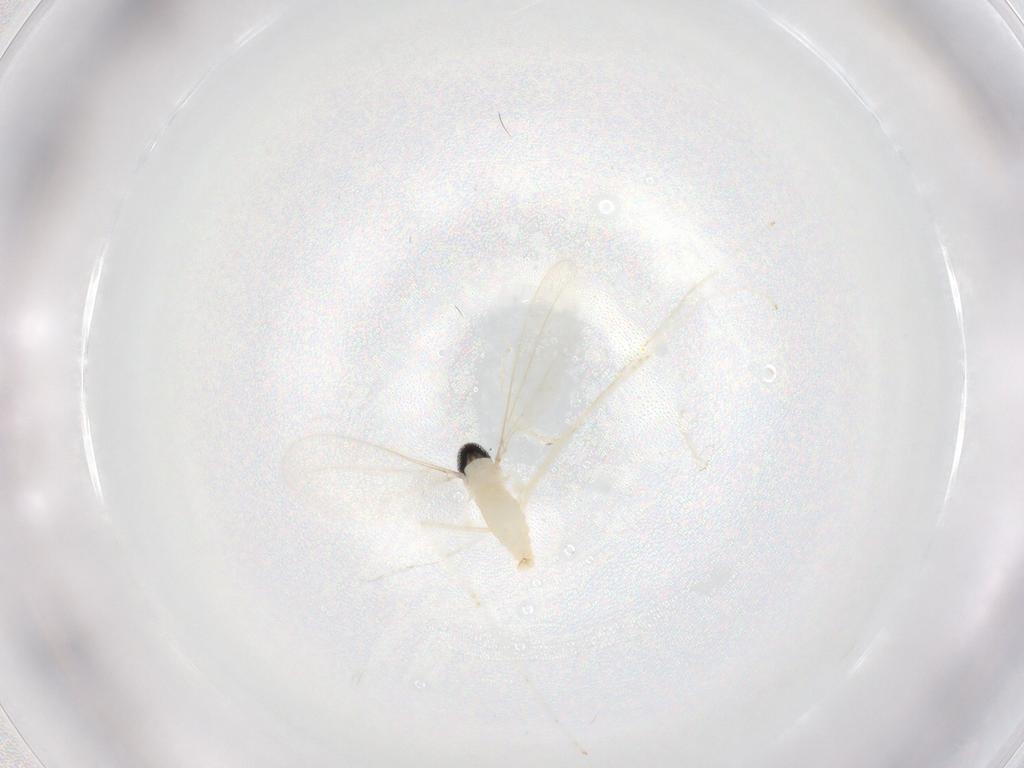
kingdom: Animalia
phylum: Arthropoda
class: Insecta
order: Diptera
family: Psychodidae
